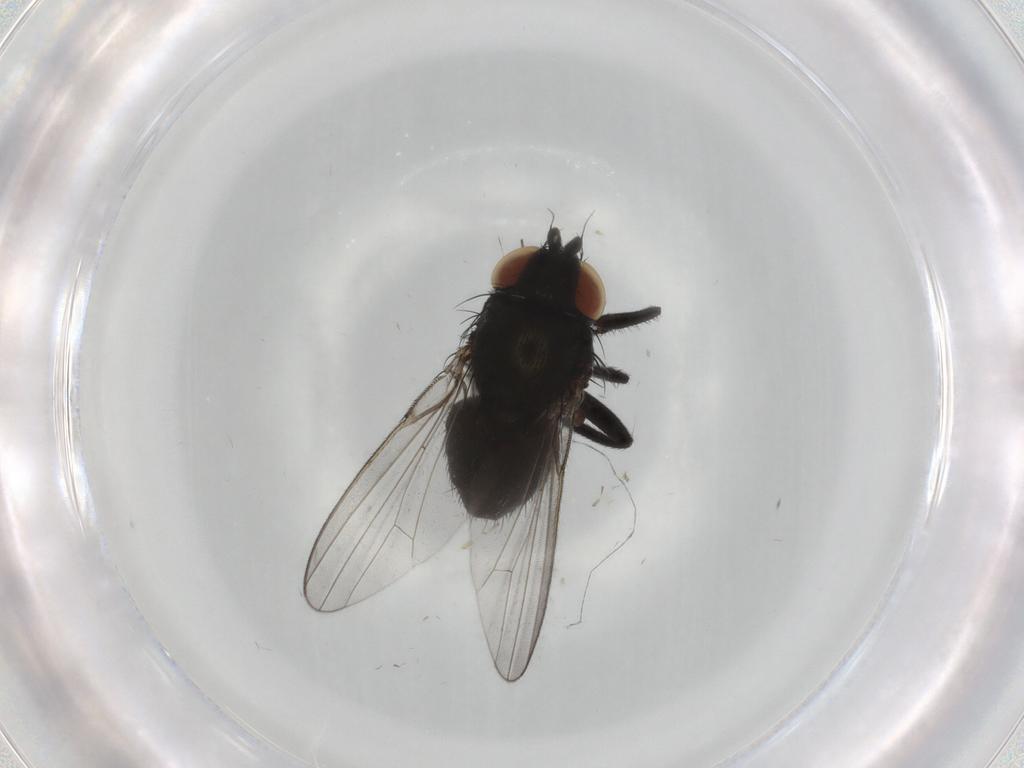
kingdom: Animalia
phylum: Arthropoda
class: Insecta
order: Diptera
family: Milichiidae
